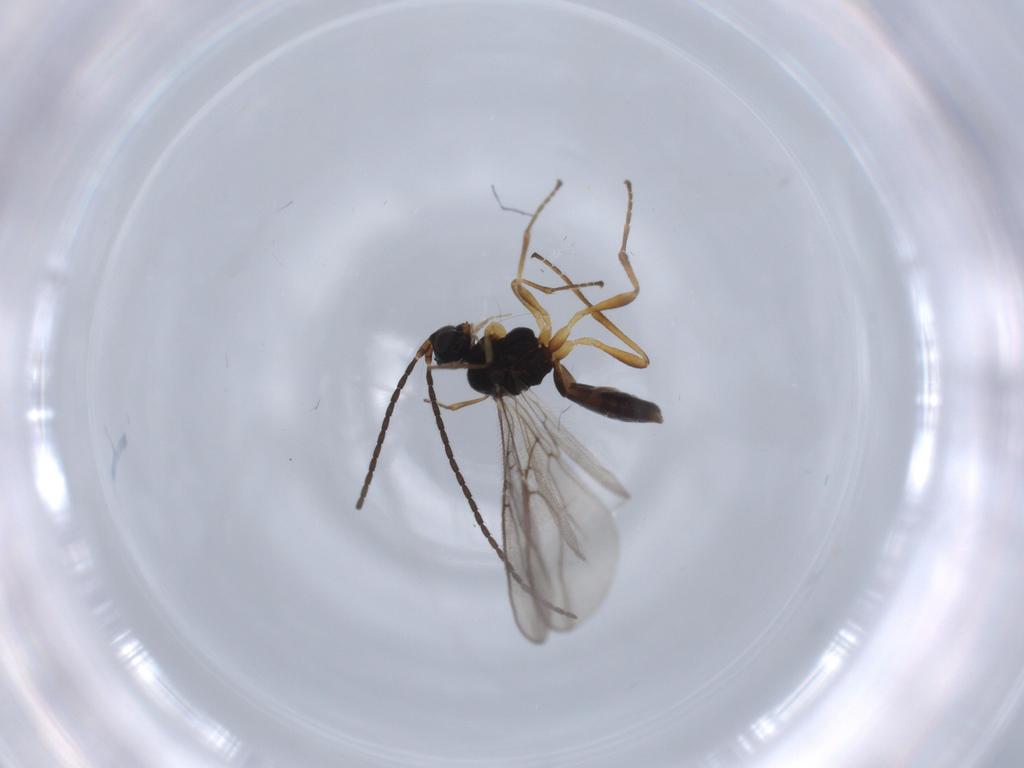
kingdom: Animalia
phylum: Arthropoda
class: Insecta
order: Hymenoptera
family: Braconidae
